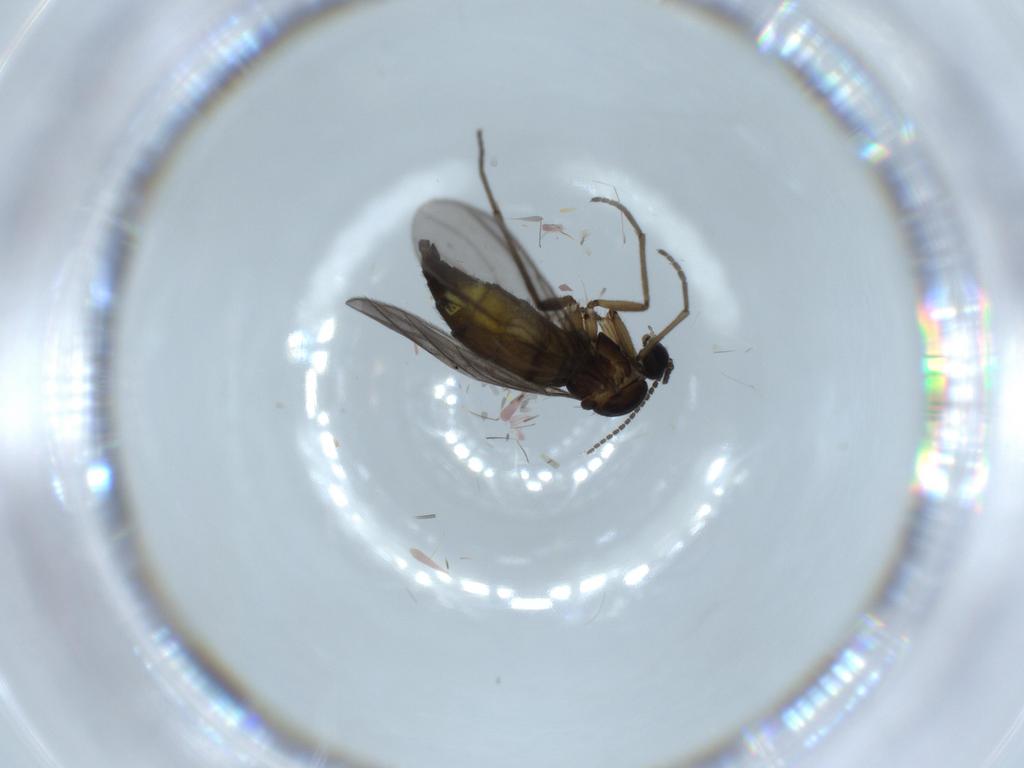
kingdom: Animalia
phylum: Arthropoda
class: Insecta
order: Diptera
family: Sciaridae
